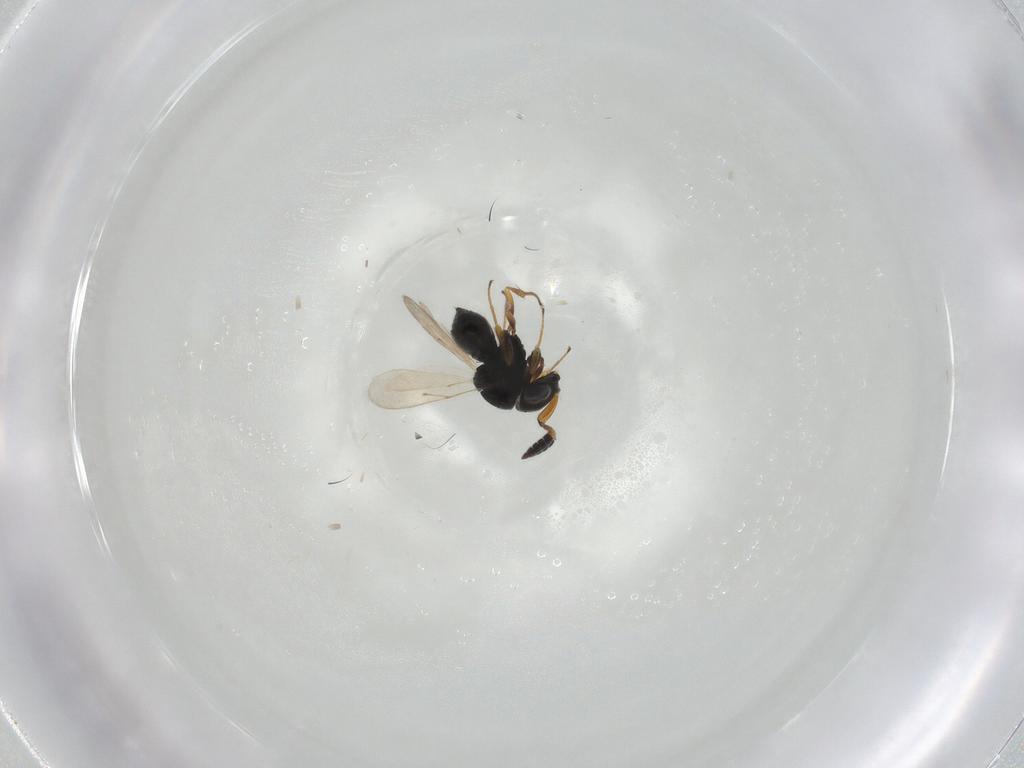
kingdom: Animalia
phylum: Arthropoda
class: Insecta
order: Hymenoptera
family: Scelionidae
